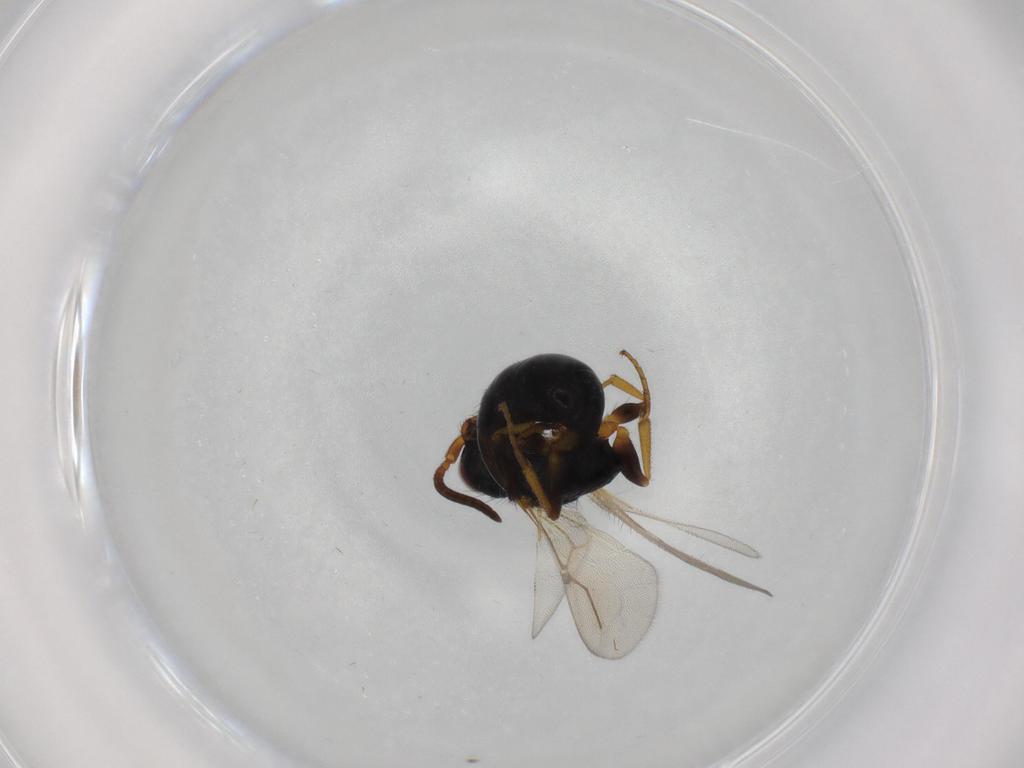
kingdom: Animalia
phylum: Arthropoda
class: Insecta
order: Hymenoptera
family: Bethylidae
